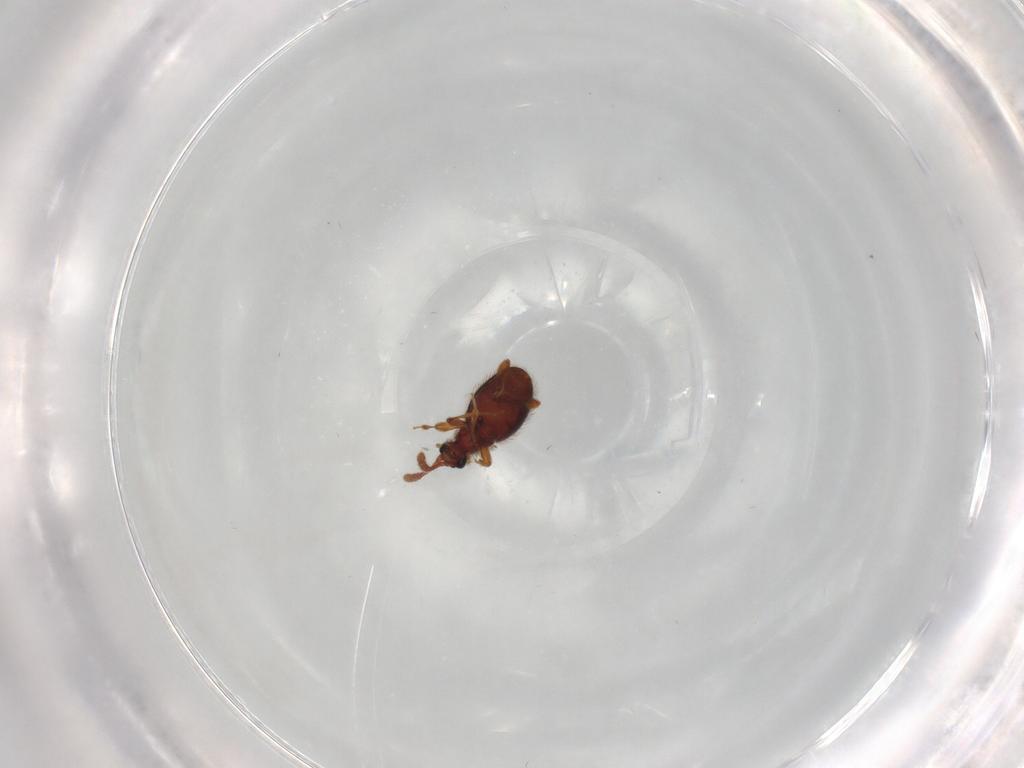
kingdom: Animalia
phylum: Arthropoda
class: Insecta
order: Coleoptera
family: Staphylinidae
